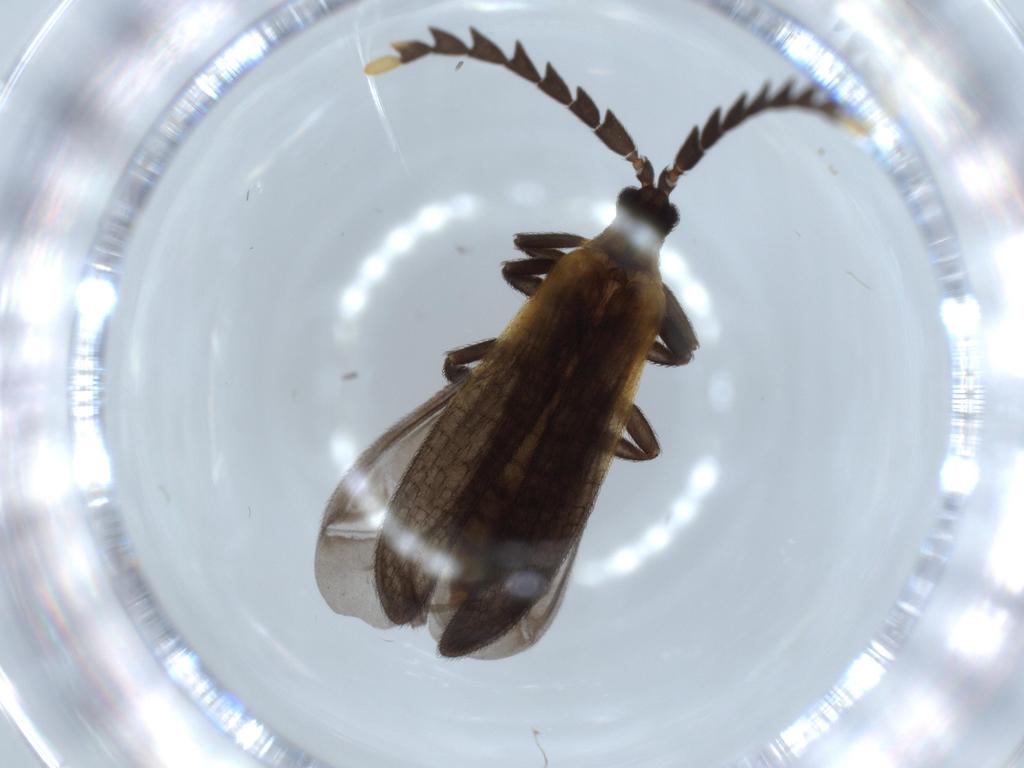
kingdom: Animalia
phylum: Arthropoda
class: Insecta
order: Coleoptera
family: Lycidae
